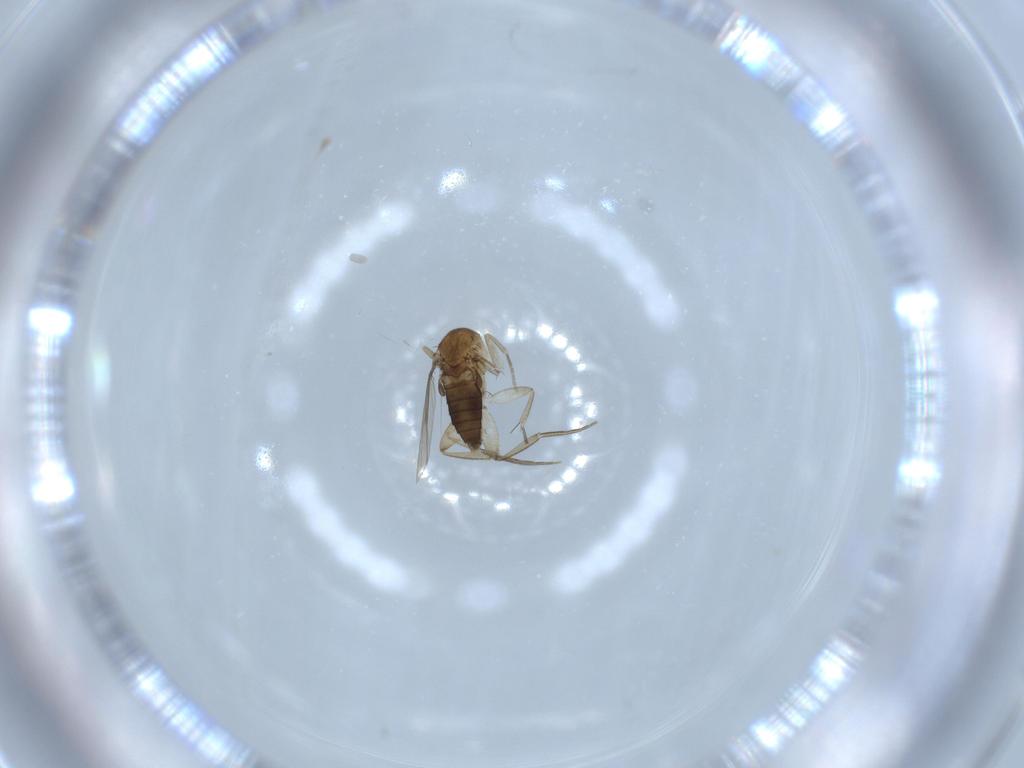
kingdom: Animalia
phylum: Arthropoda
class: Insecta
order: Diptera
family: Phoridae
